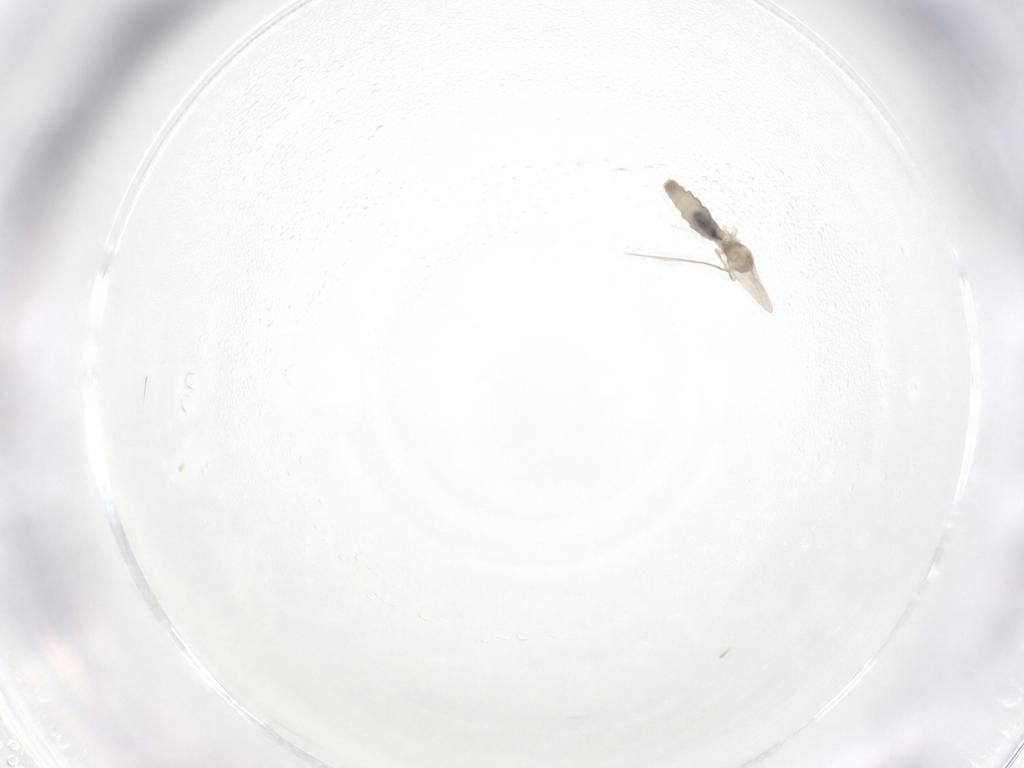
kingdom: Animalia
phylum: Arthropoda
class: Insecta
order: Diptera
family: Cecidomyiidae
